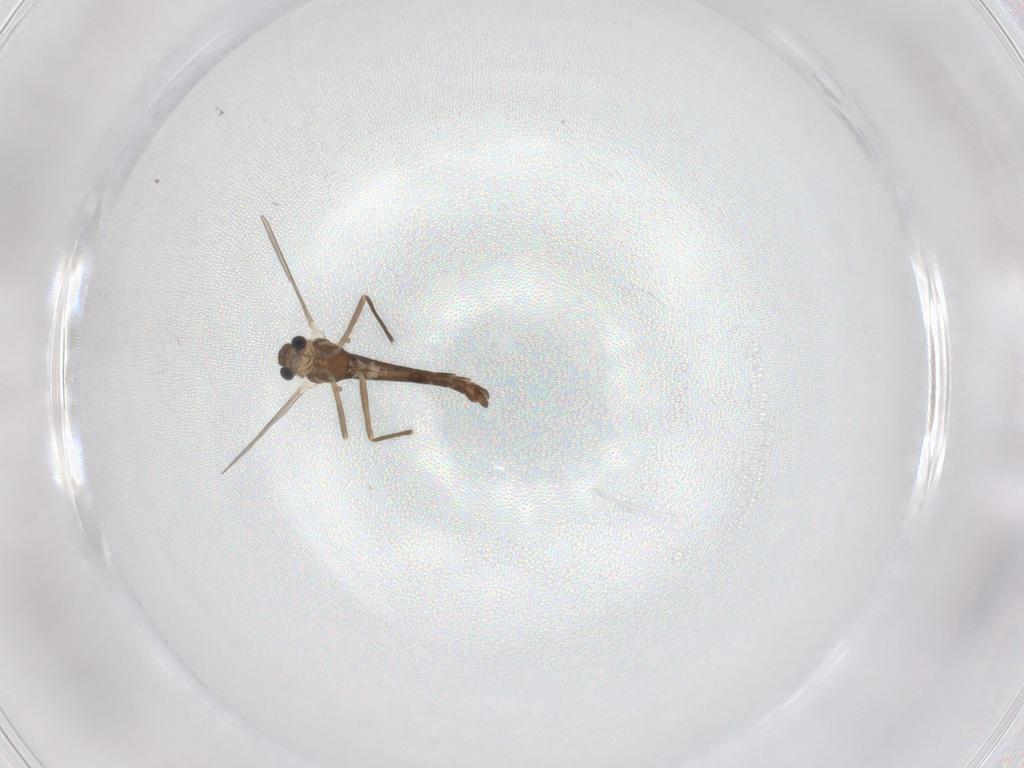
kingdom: Animalia
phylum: Arthropoda
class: Insecta
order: Diptera
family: Chironomidae
